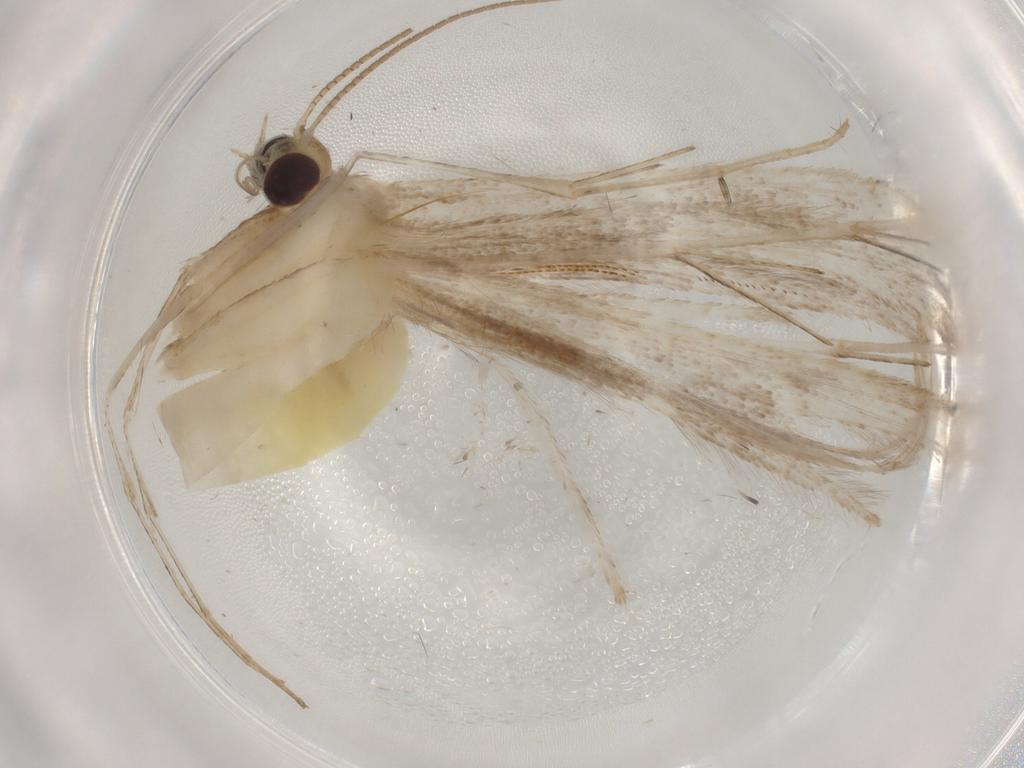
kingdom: Animalia
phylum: Arthropoda
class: Insecta
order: Lepidoptera
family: Elachistidae
